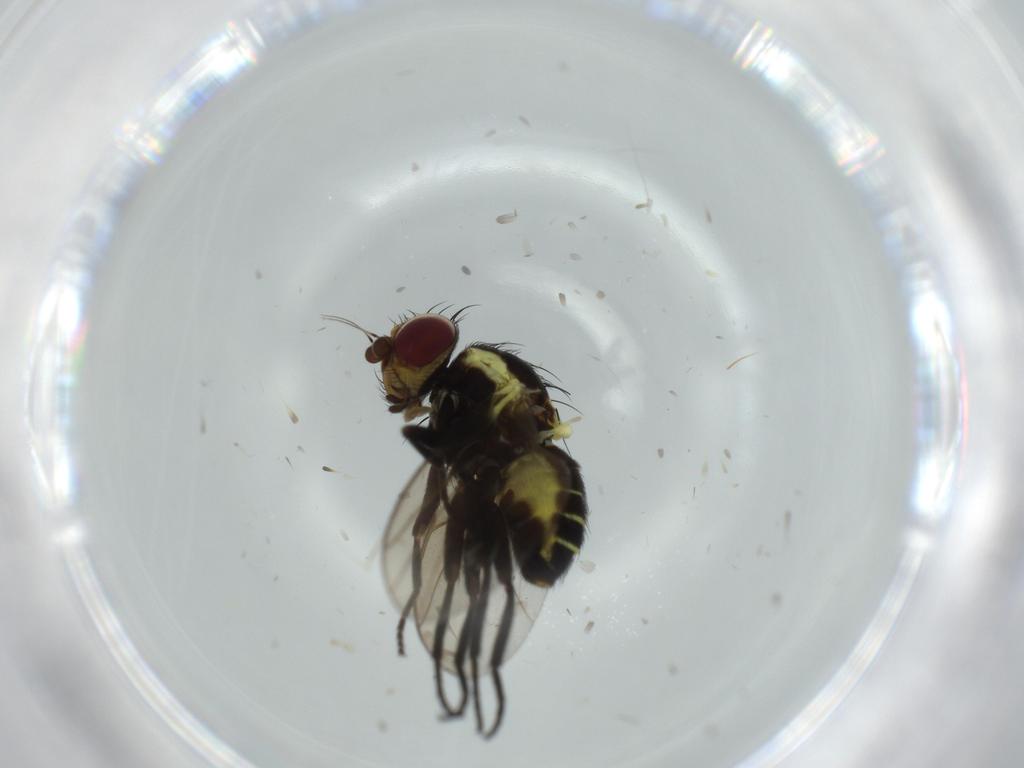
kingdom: Animalia
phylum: Arthropoda
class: Insecta
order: Diptera
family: Agromyzidae
